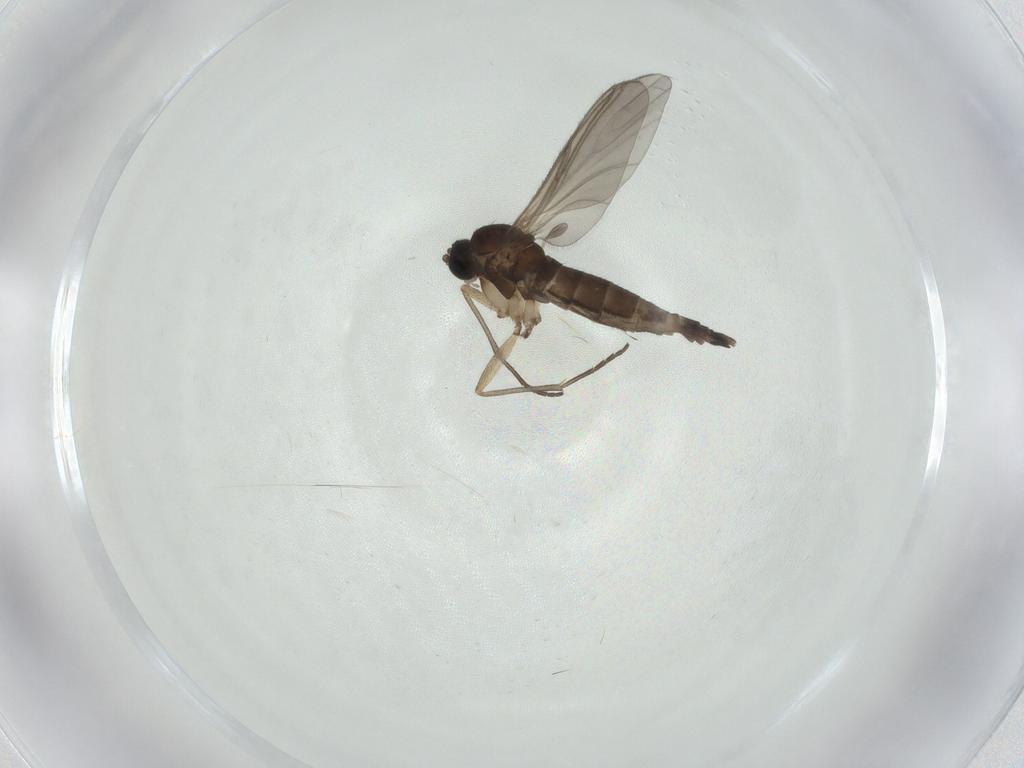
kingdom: Animalia
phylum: Arthropoda
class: Insecta
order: Diptera
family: Sciaridae
